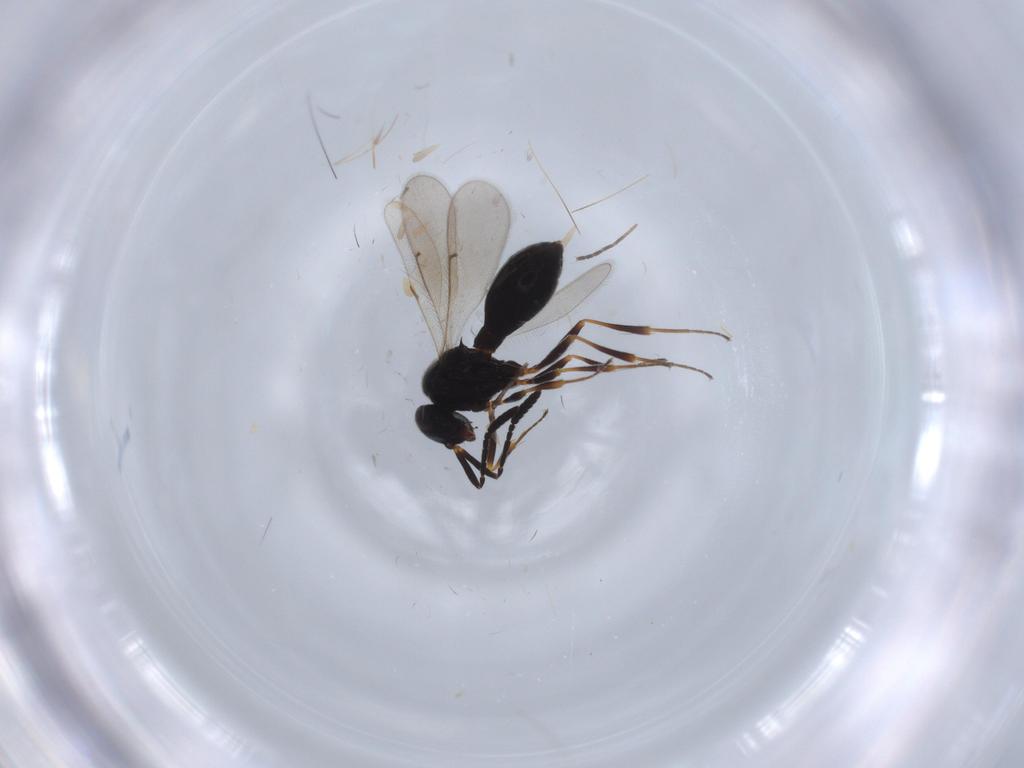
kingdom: Animalia
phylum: Arthropoda
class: Insecta
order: Hymenoptera
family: Scelionidae
